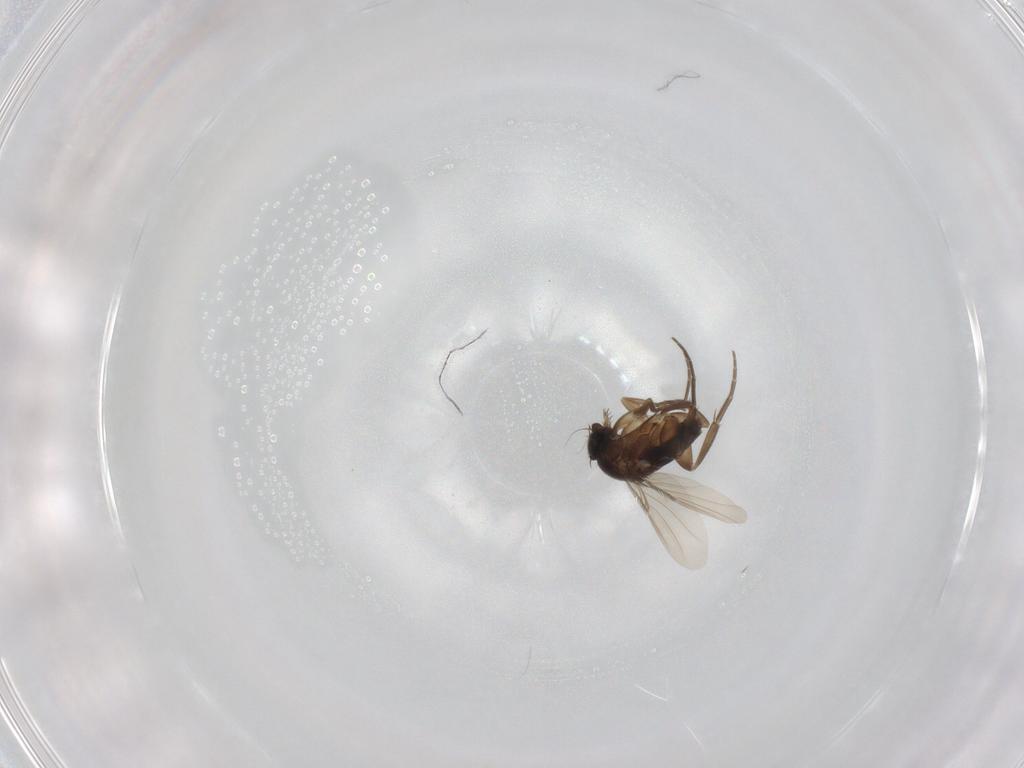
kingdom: Animalia
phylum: Arthropoda
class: Insecta
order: Diptera
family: Phoridae
